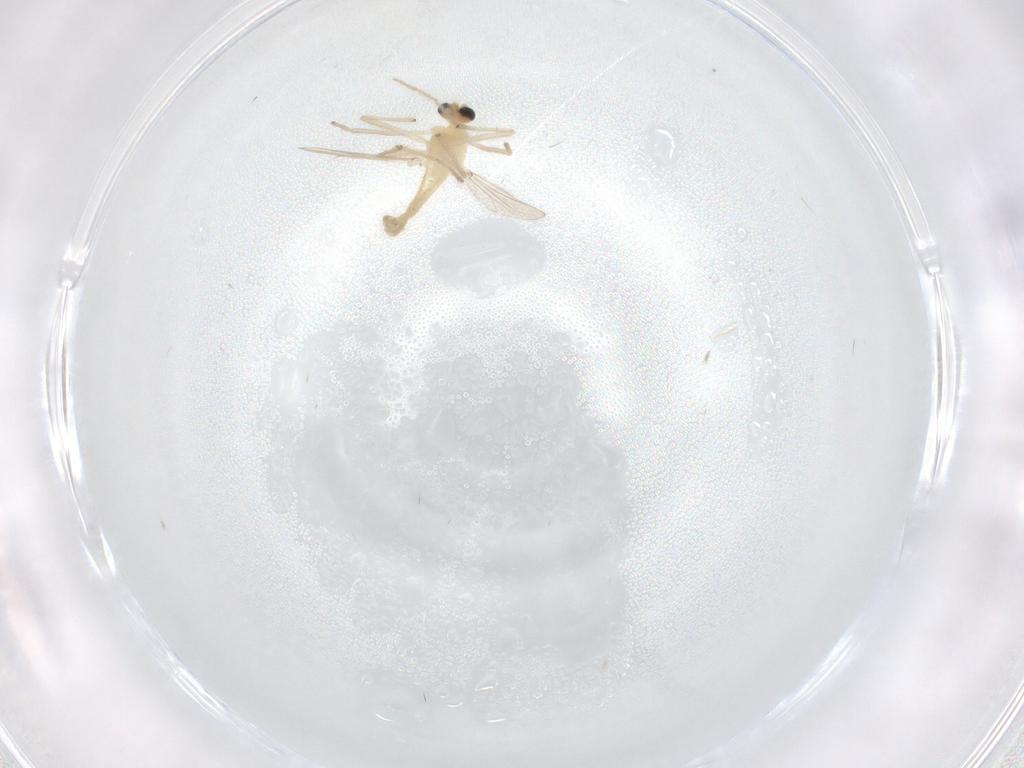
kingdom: Animalia
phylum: Arthropoda
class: Insecta
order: Diptera
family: Chironomidae
